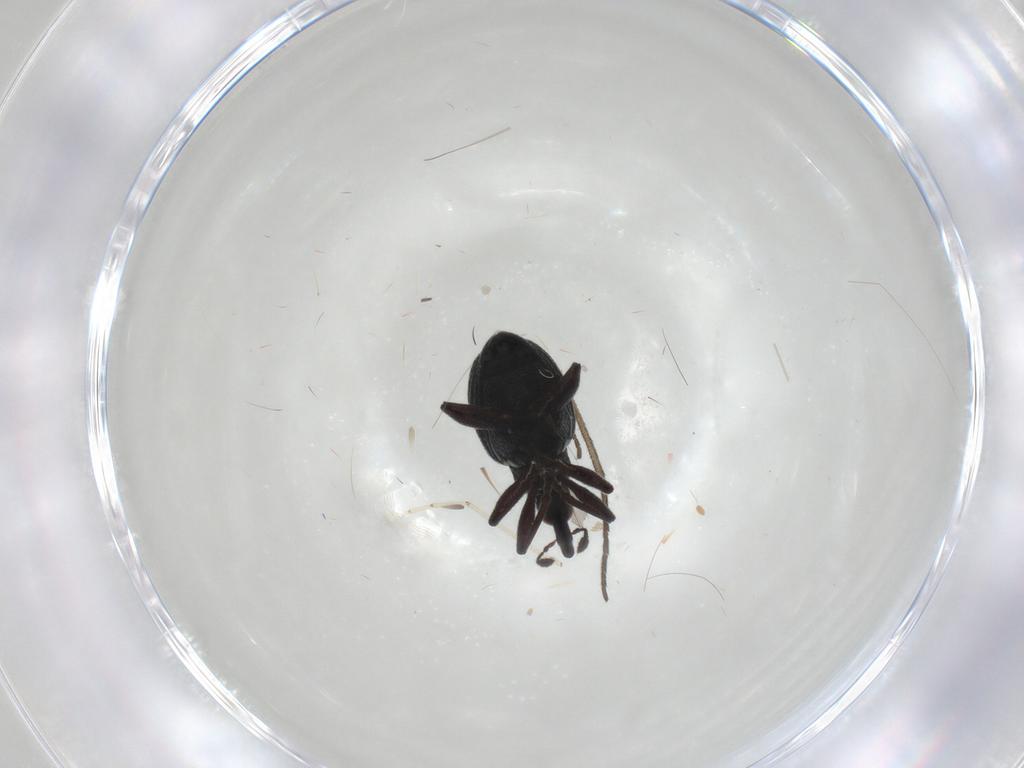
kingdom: Animalia
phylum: Arthropoda
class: Insecta
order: Coleoptera
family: Brentidae
